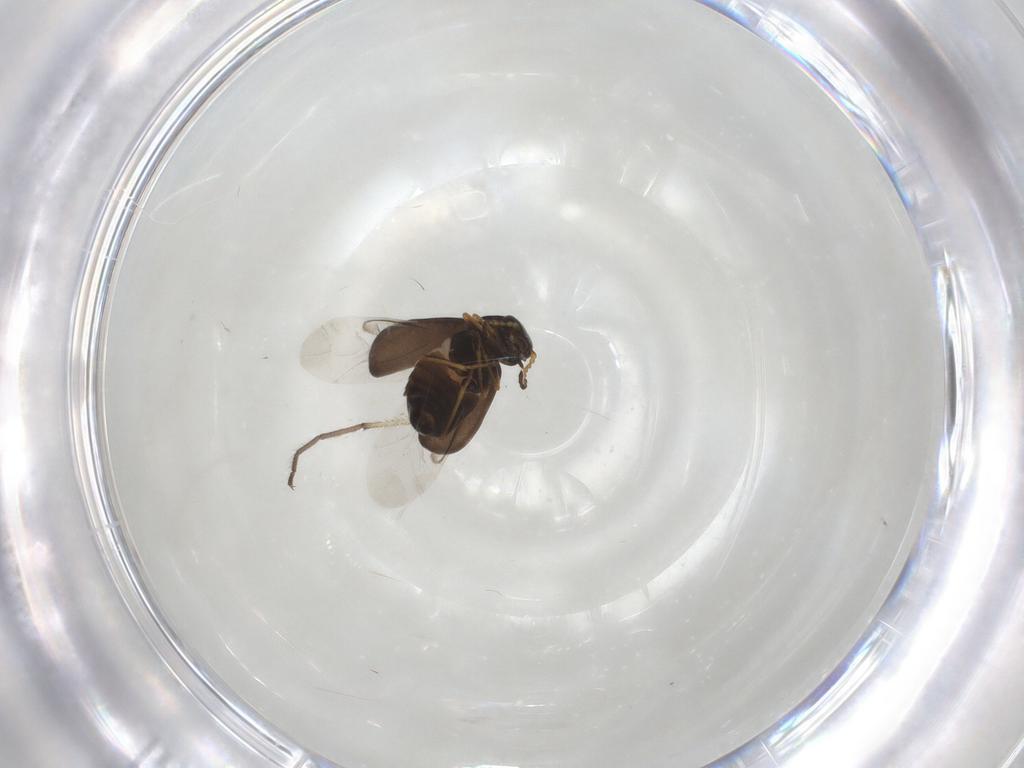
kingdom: Animalia
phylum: Arthropoda
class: Insecta
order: Coleoptera
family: Melyridae
